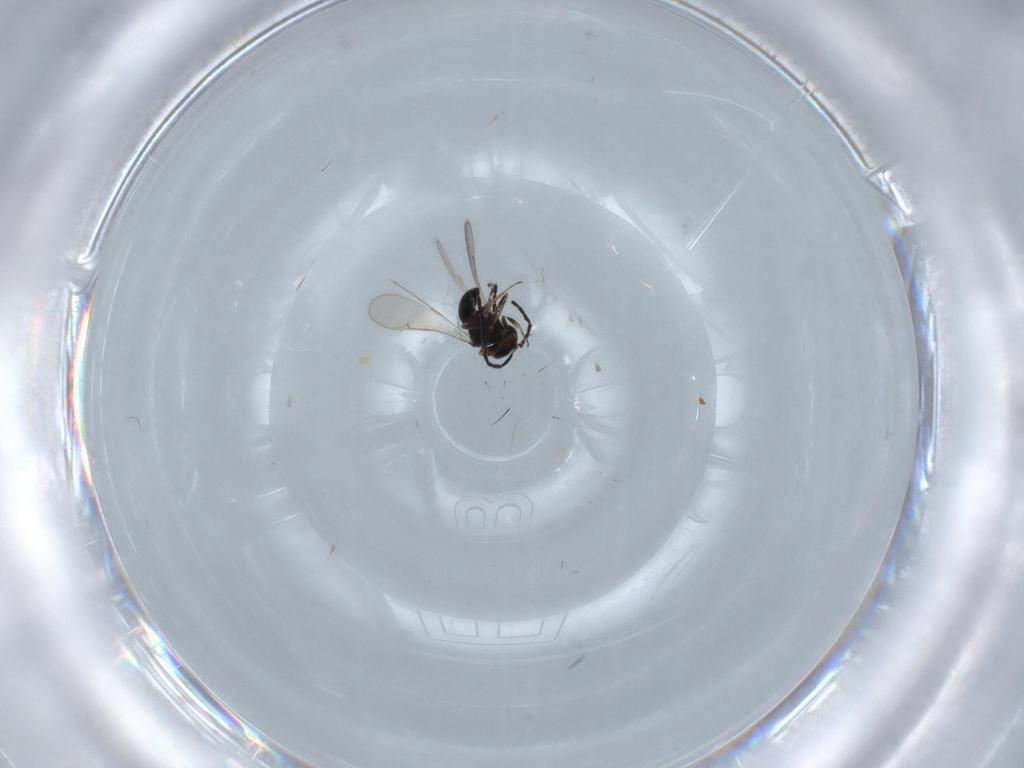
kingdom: Animalia
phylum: Arthropoda
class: Insecta
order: Hymenoptera
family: Scelionidae
